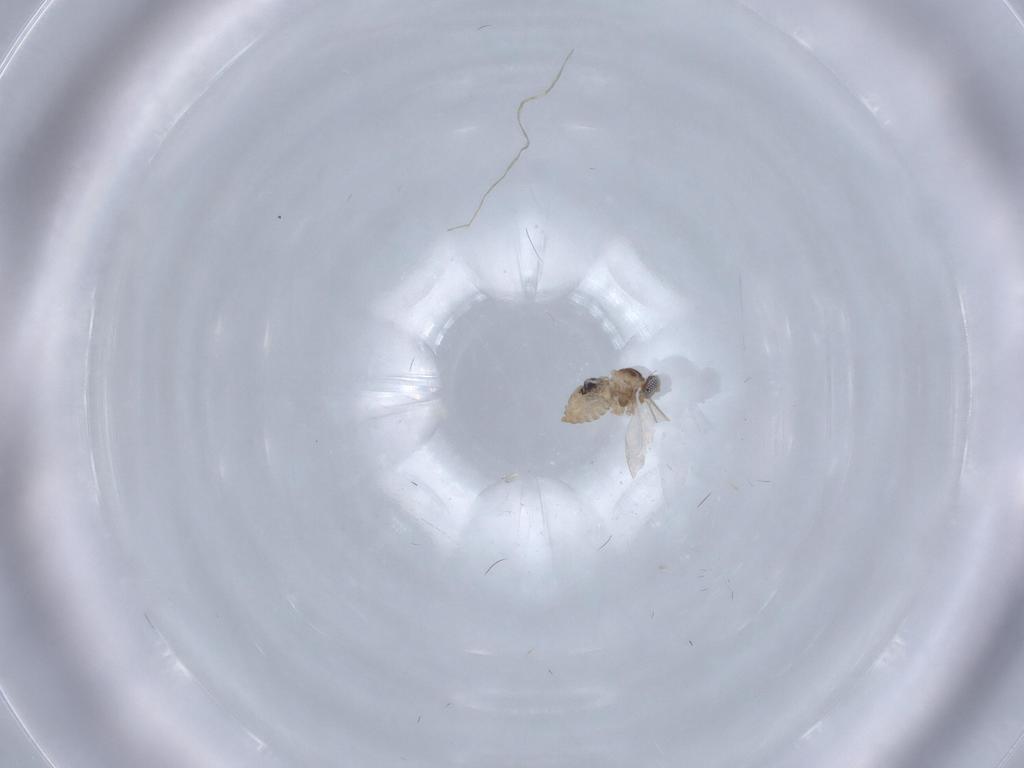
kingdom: Animalia
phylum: Arthropoda
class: Insecta
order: Diptera
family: Cecidomyiidae
